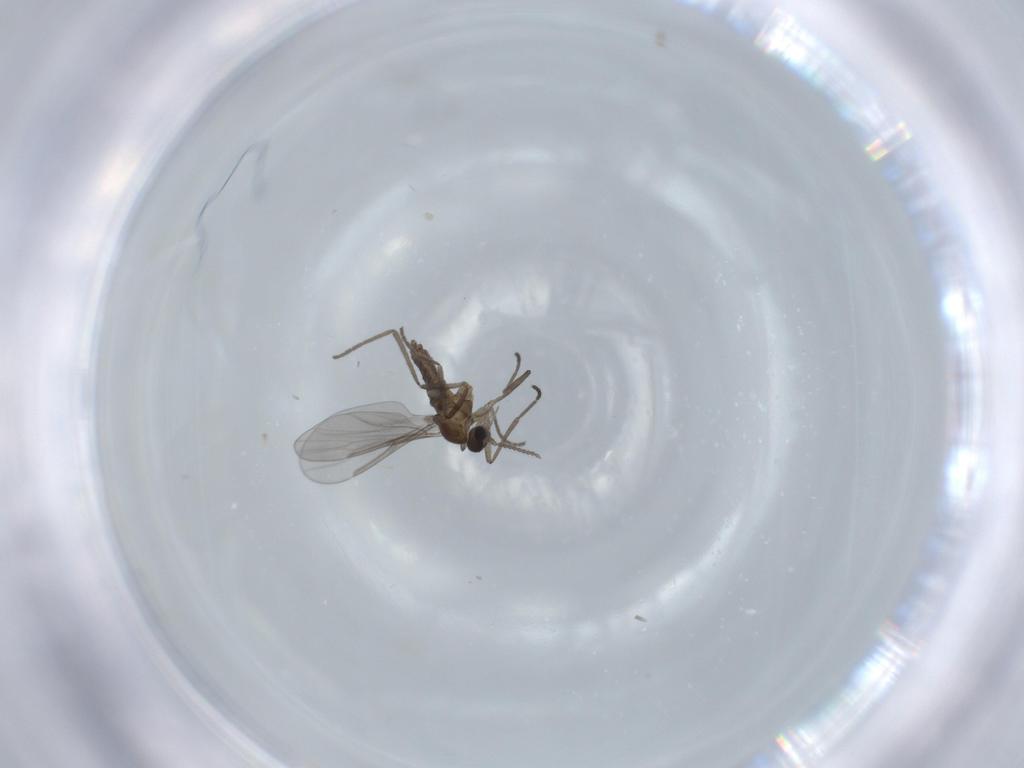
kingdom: Animalia
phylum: Arthropoda
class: Insecta
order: Diptera
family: Cecidomyiidae
